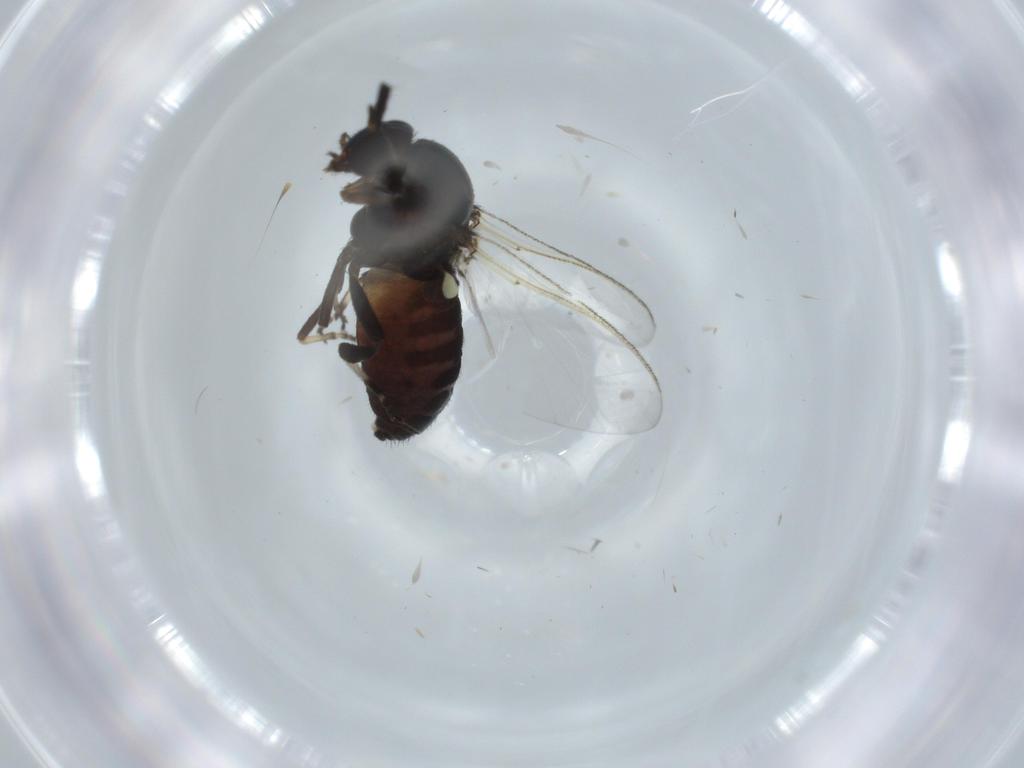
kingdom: Animalia
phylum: Arthropoda
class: Insecta
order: Diptera
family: Simuliidae
